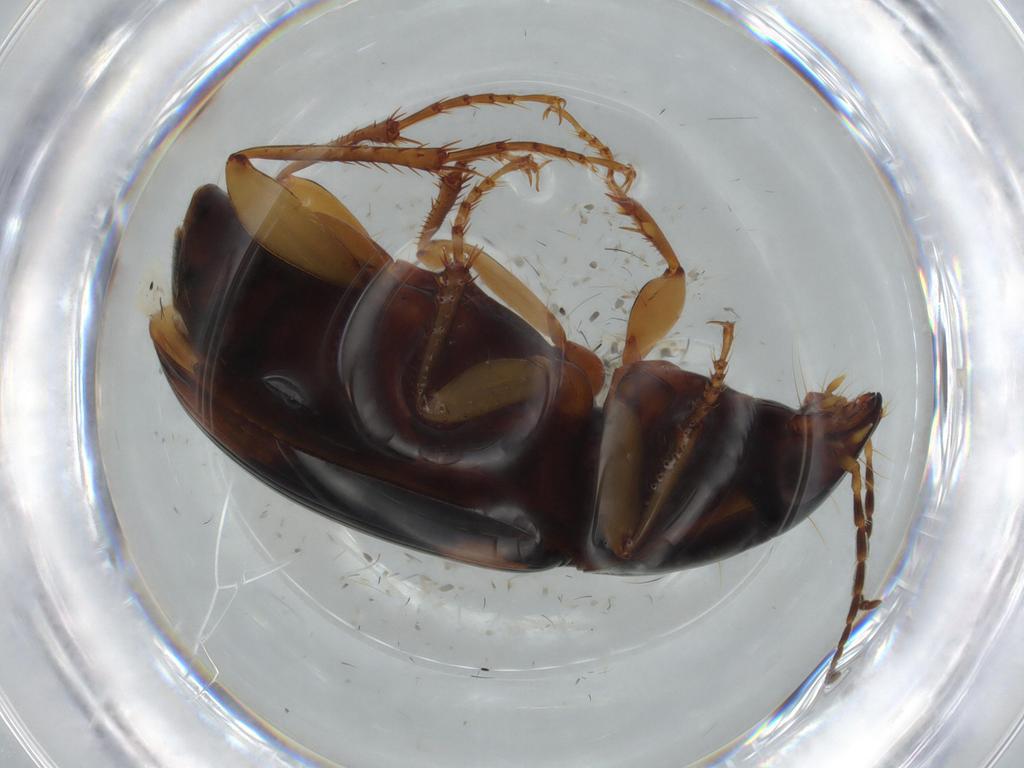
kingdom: Animalia
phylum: Arthropoda
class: Insecta
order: Coleoptera
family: Carabidae
